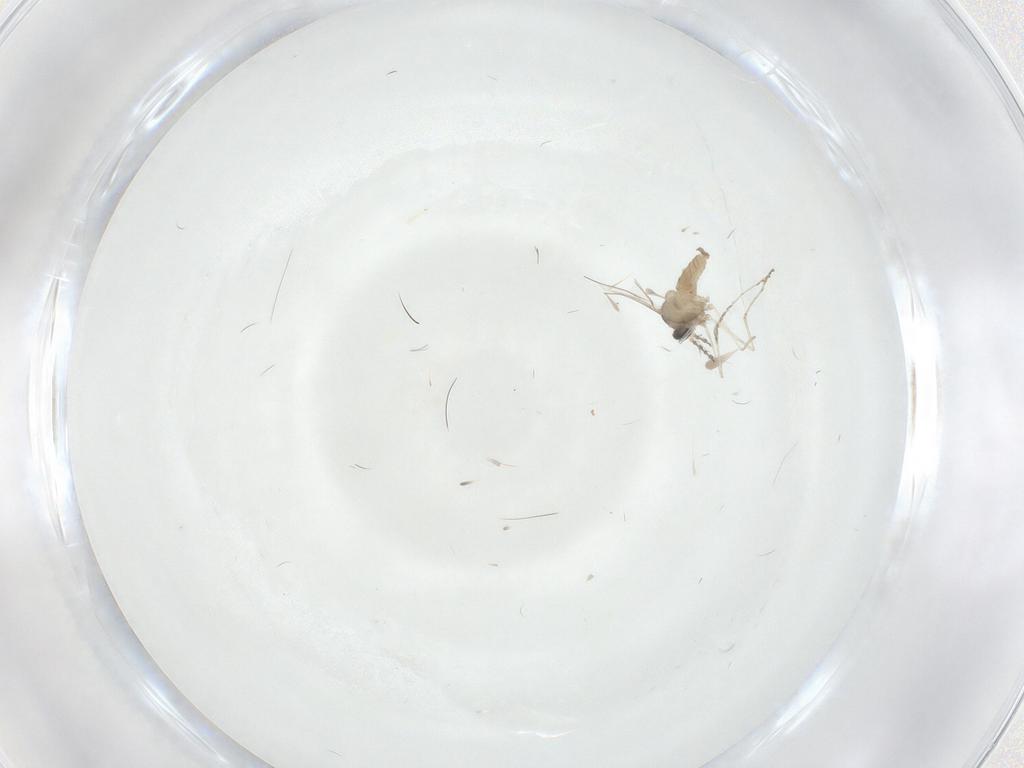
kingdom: Animalia
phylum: Arthropoda
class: Insecta
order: Diptera
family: Cecidomyiidae
